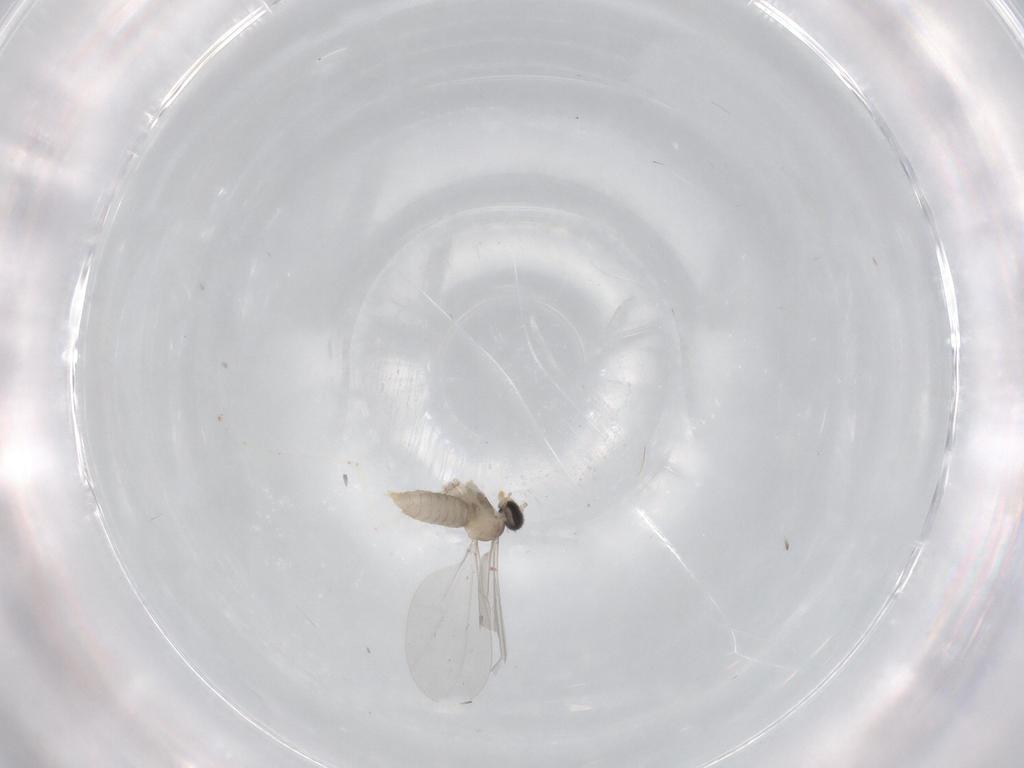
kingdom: Animalia
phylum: Arthropoda
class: Insecta
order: Diptera
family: Cecidomyiidae
